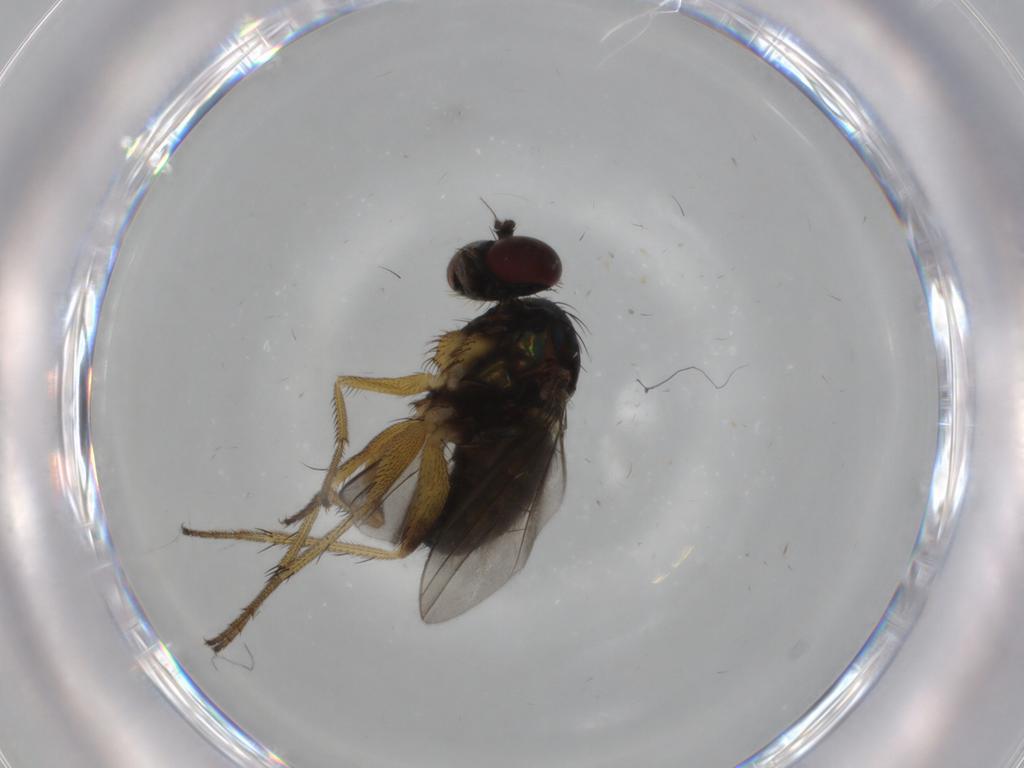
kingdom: Animalia
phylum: Arthropoda
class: Insecta
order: Diptera
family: Dolichopodidae
